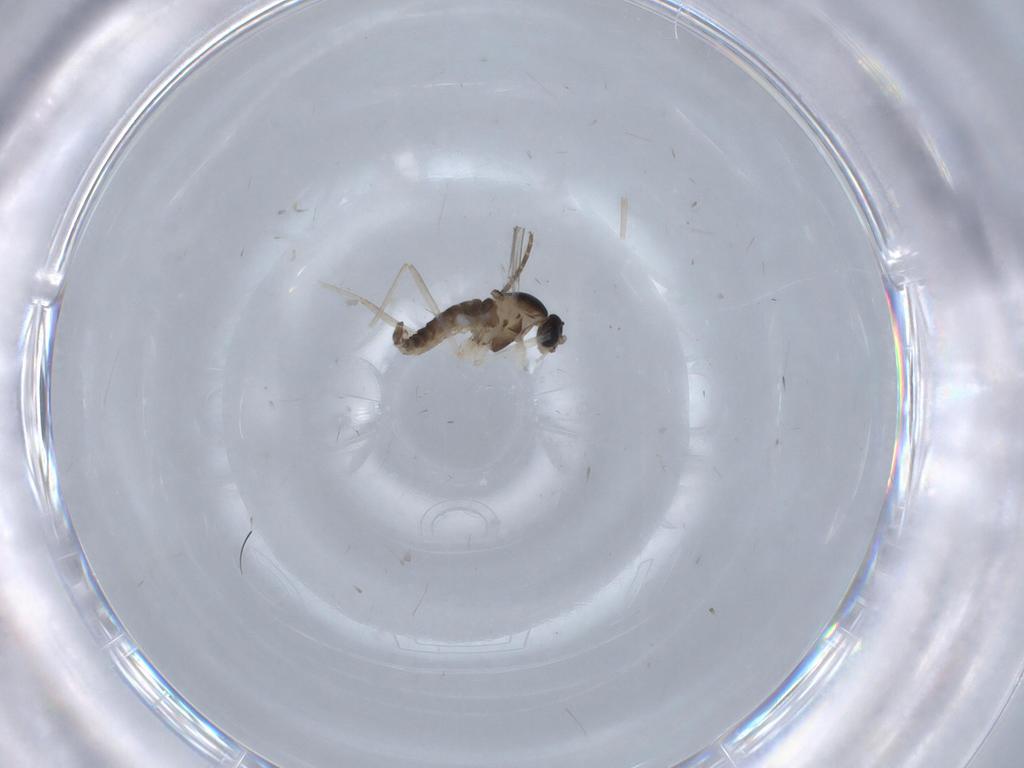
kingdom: Animalia
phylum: Arthropoda
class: Insecta
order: Diptera
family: Cecidomyiidae
